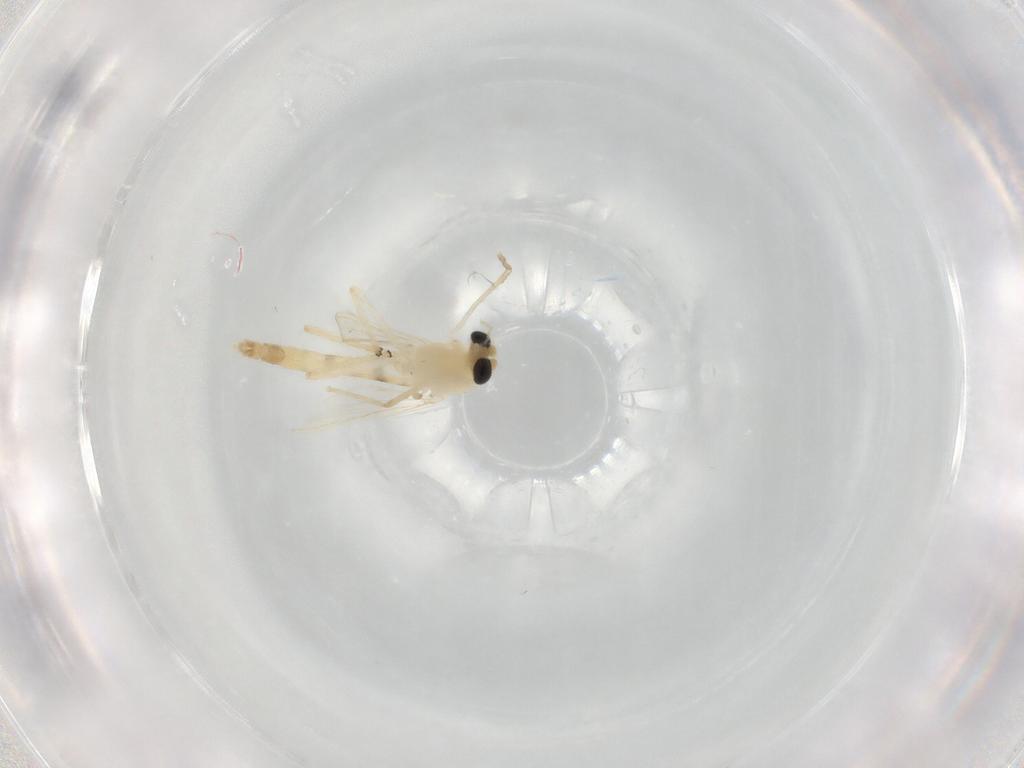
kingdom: Animalia
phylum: Arthropoda
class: Insecta
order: Diptera
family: Chironomidae
